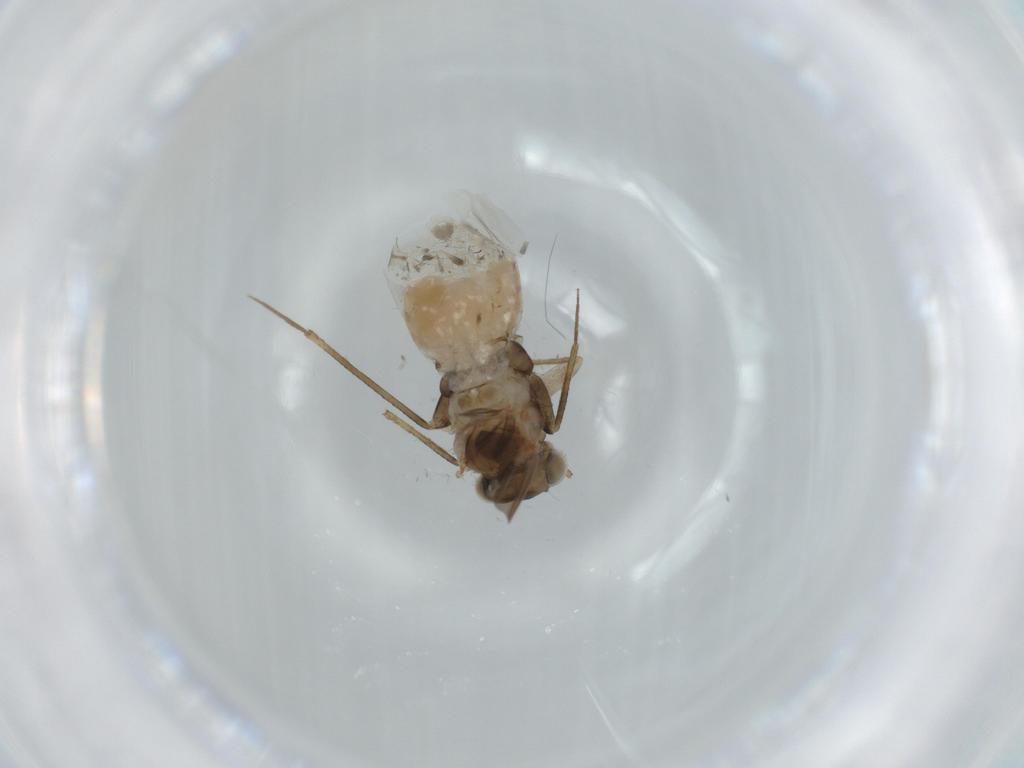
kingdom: Animalia
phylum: Arthropoda
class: Insecta
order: Psocodea
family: Lepidopsocidae
